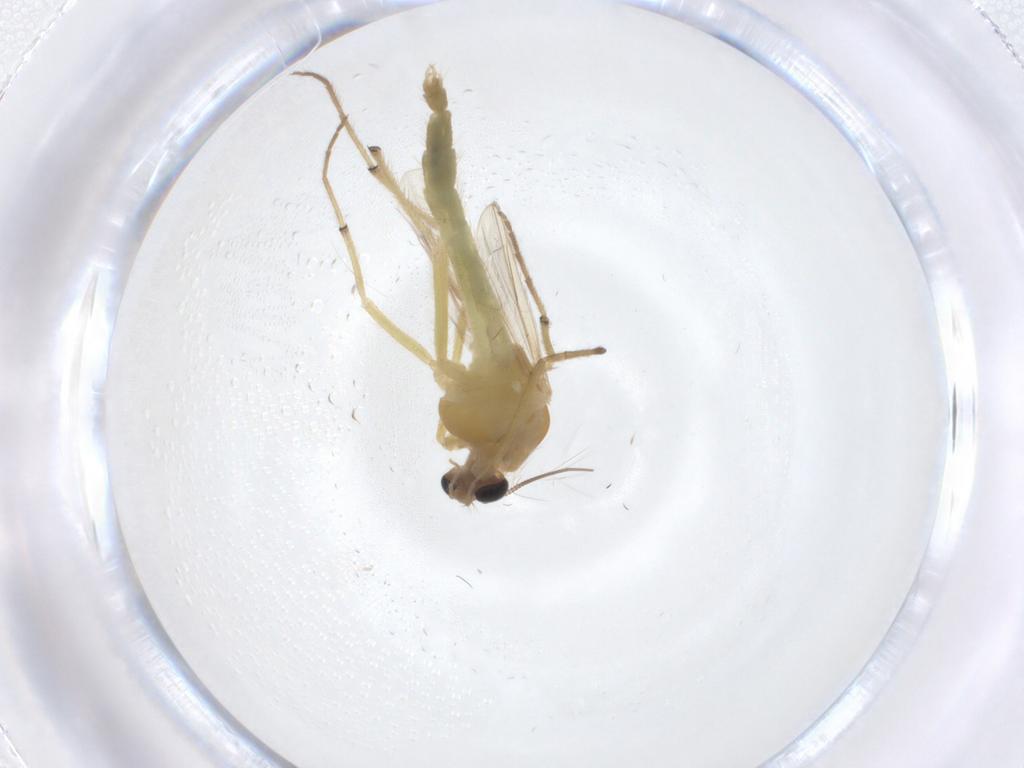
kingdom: Animalia
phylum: Arthropoda
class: Insecta
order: Diptera
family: Chironomidae
